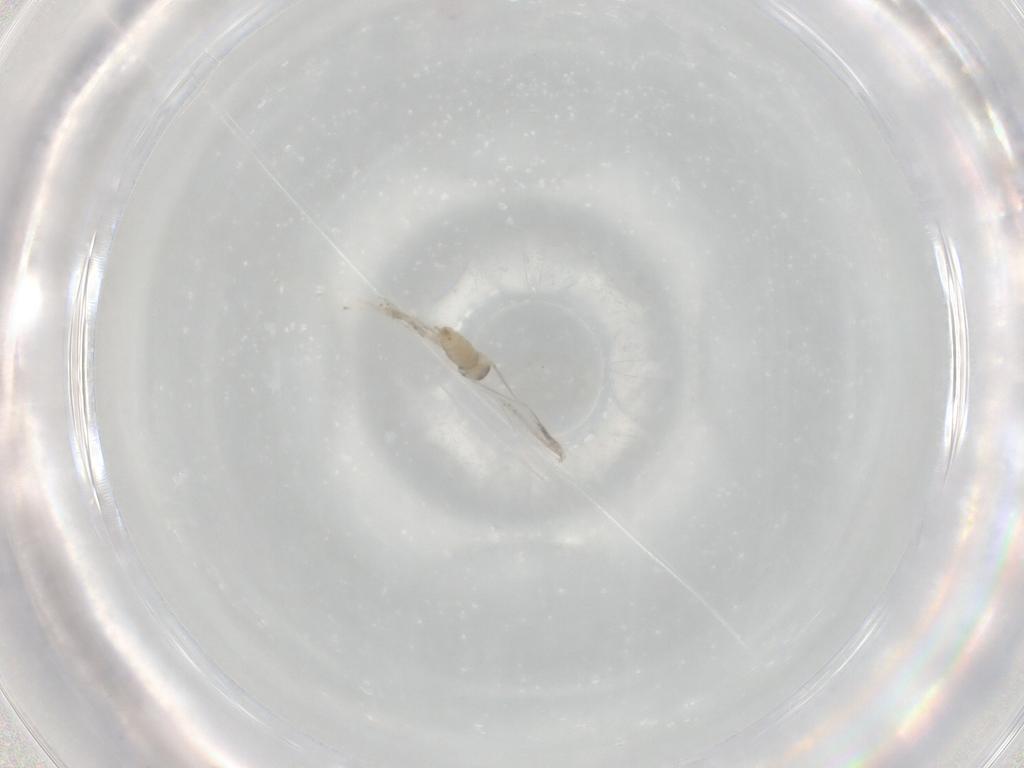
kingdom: Animalia
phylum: Arthropoda
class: Insecta
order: Diptera
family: Cecidomyiidae
